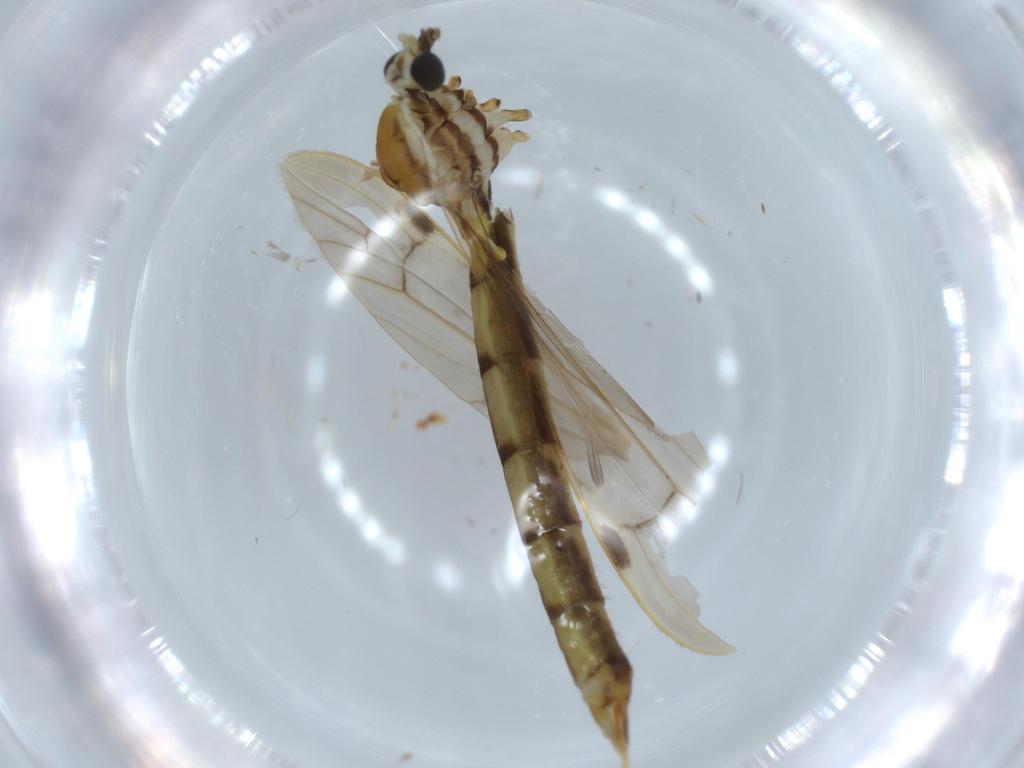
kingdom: Animalia
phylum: Arthropoda
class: Insecta
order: Diptera
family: Limoniidae
